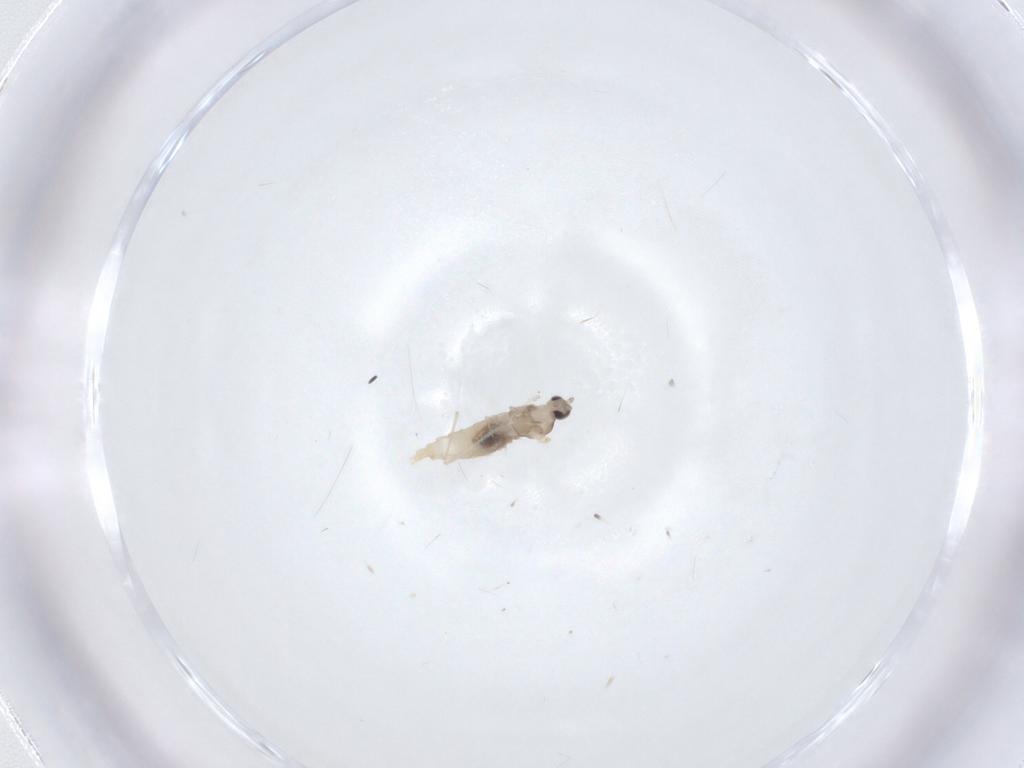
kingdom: Animalia
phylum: Arthropoda
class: Insecta
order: Diptera
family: Cecidomyiidae
